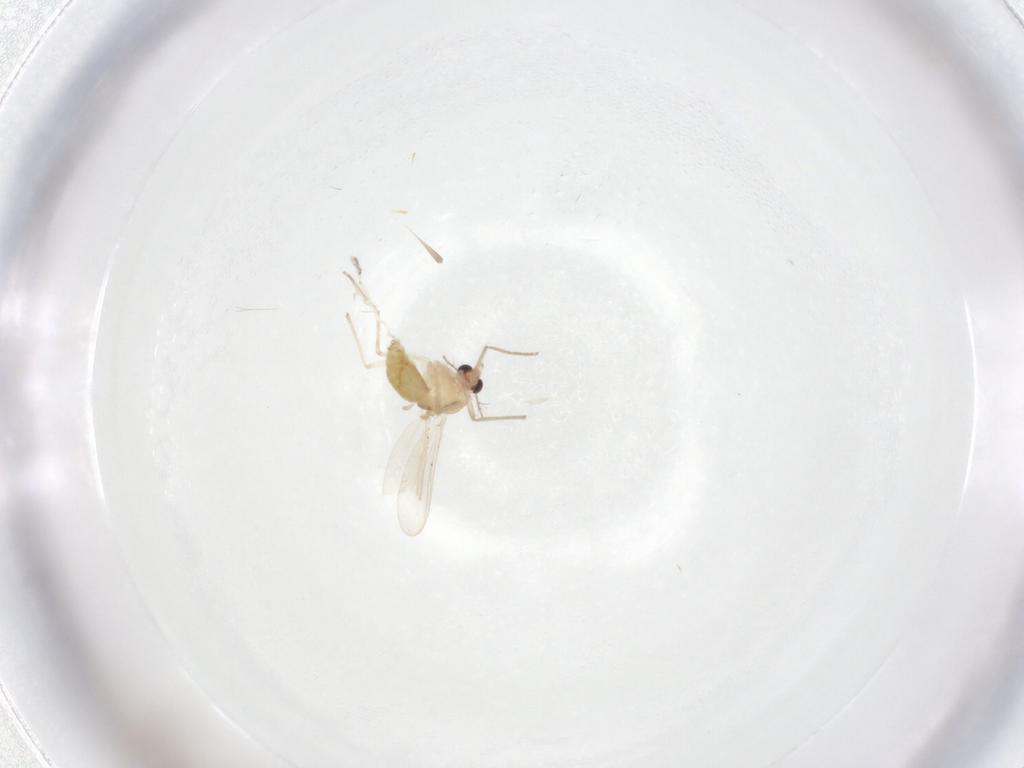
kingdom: Animalia
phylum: Arthropoda
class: Insecta
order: Diptera
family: Chironomidae
